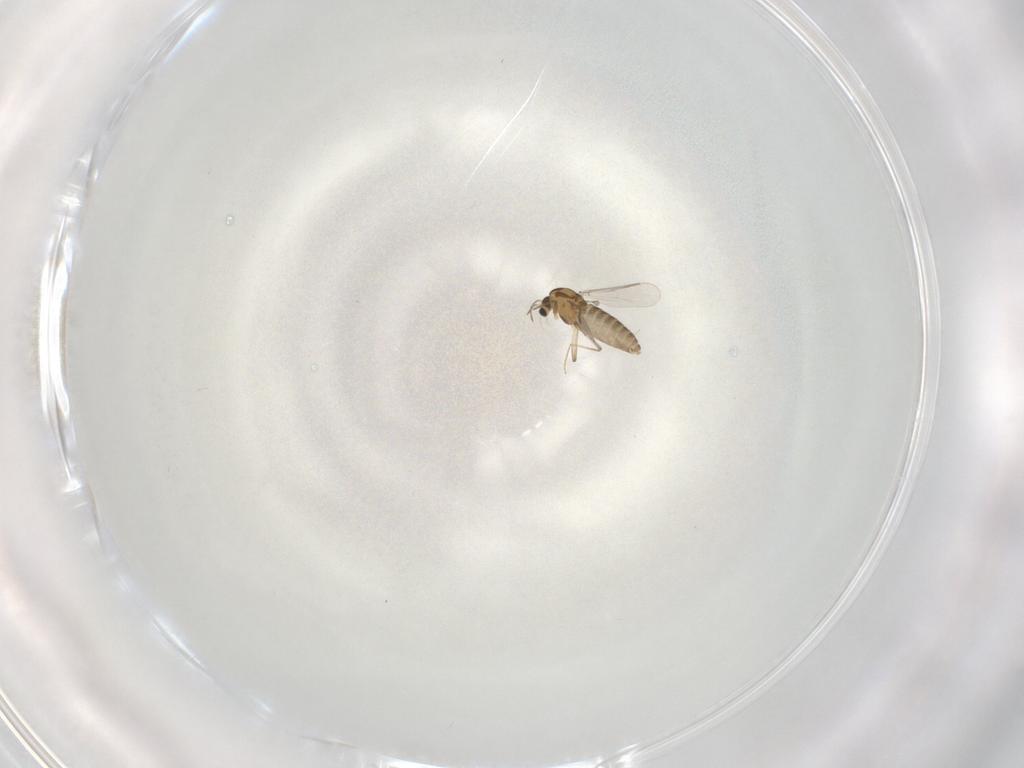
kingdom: Animalia
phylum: Arthropoda
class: Insecta
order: Diptera
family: Chironomidae
